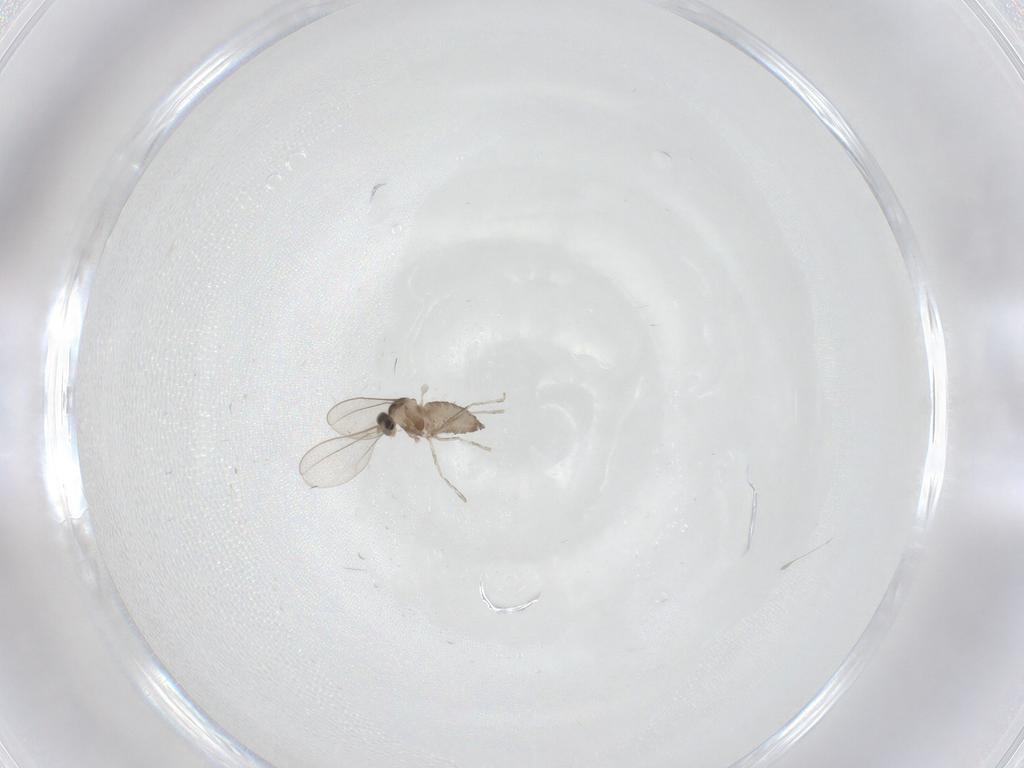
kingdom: Animalia
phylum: Arthropoda
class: Insecta
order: Diptera
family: Cecidomyiidae
